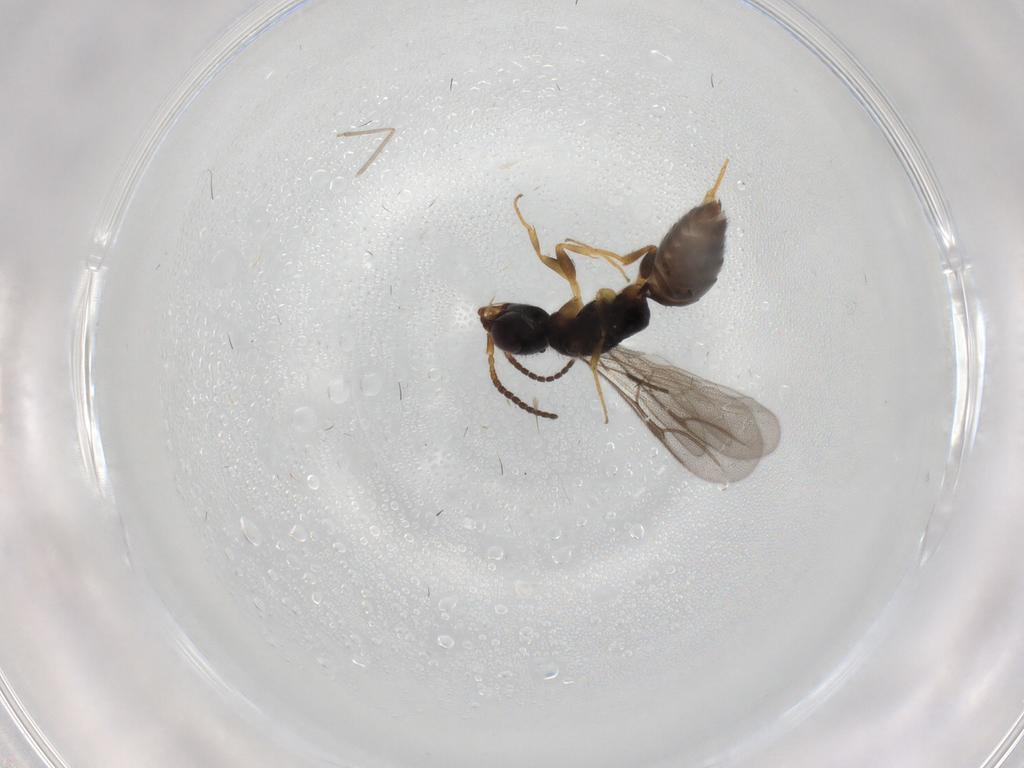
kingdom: Animalia
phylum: Arthropoda
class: Insecta
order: Hymenoptera
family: Bethylidae
